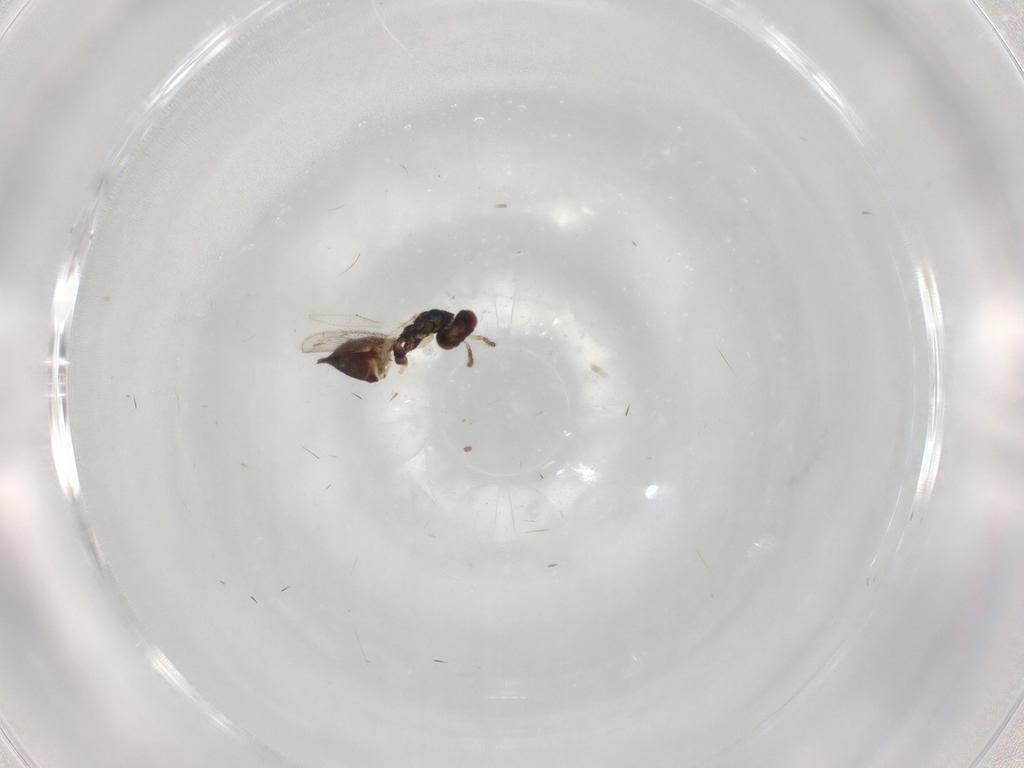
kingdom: Animalia
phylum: Arthropoda
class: Insecta
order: Hymenoptera
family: Eulophidae
